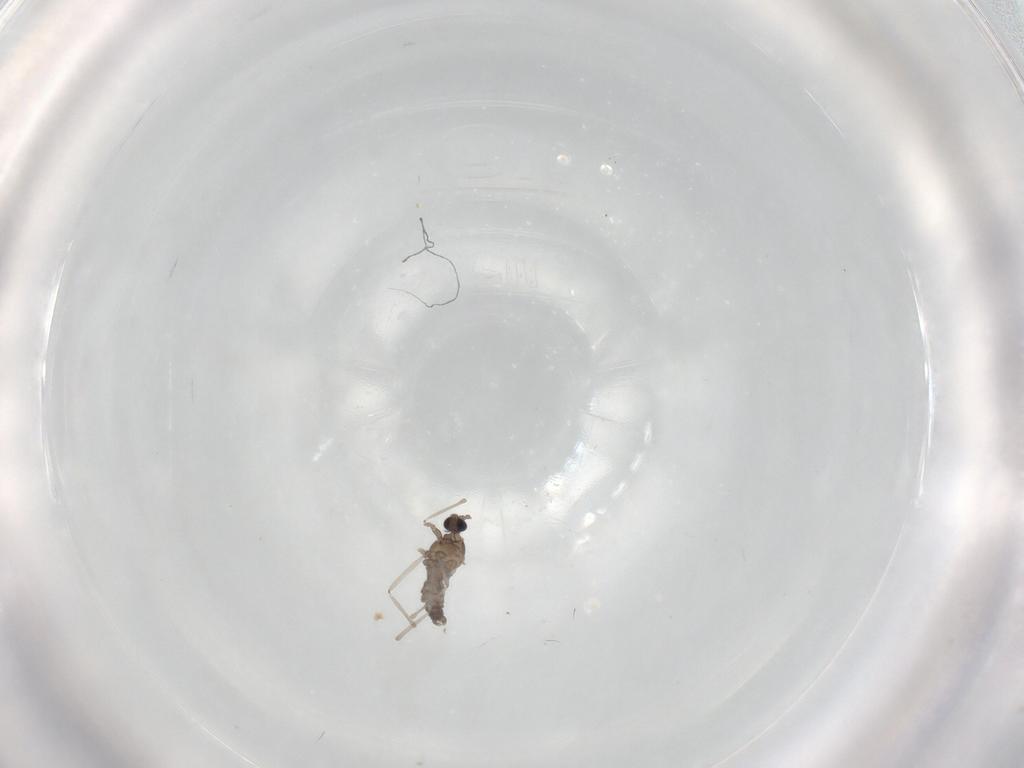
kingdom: Animalia
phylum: Arthropoda
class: Insecta
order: Diptera
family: Cecidomyiidae
